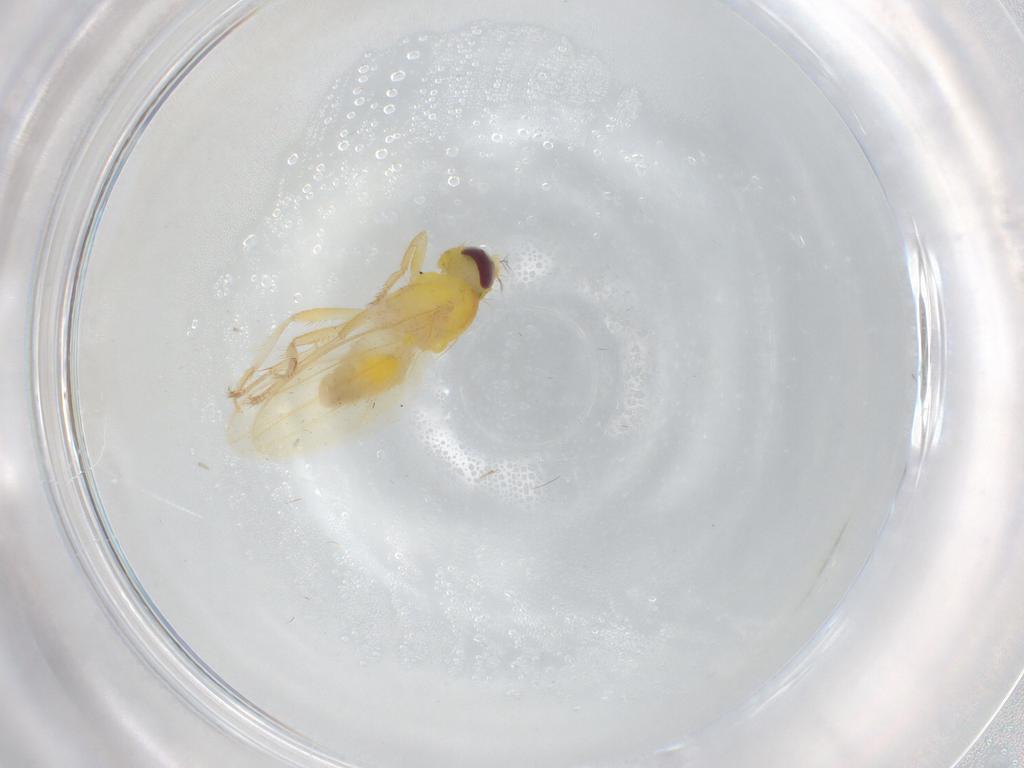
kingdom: Animalia
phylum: Arthropoda
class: Insecta
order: Diptera
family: Periscelididae
